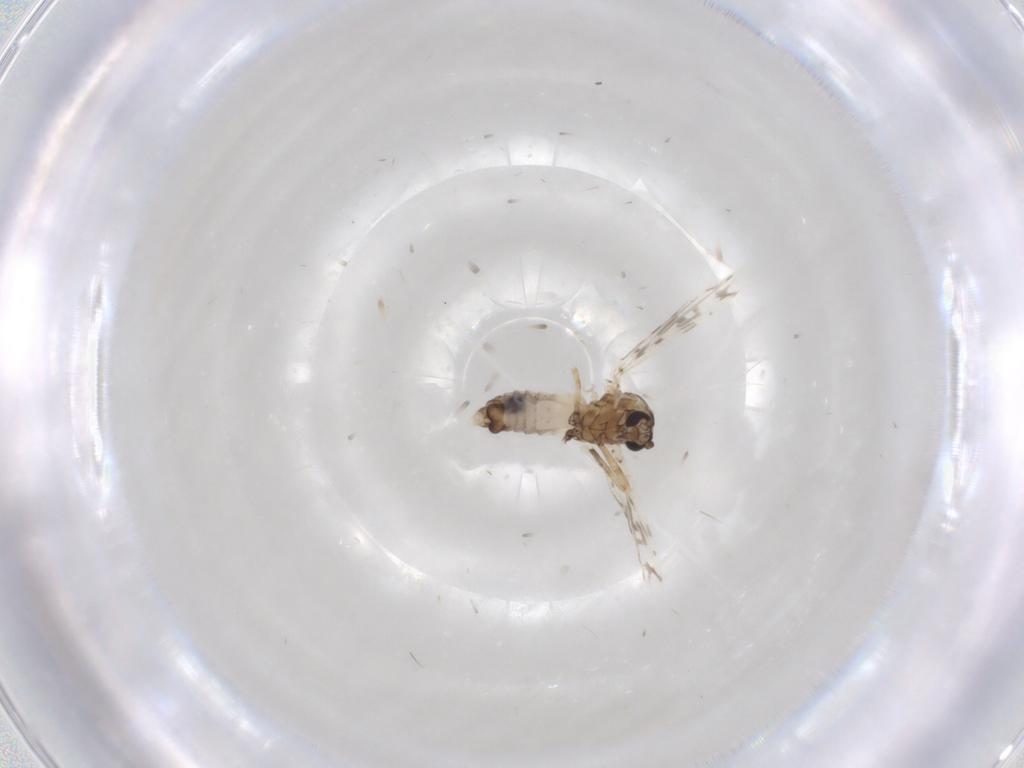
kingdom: Animalia
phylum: Arthropoda
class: Insecta
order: Diptera
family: Ceratopogonidae
